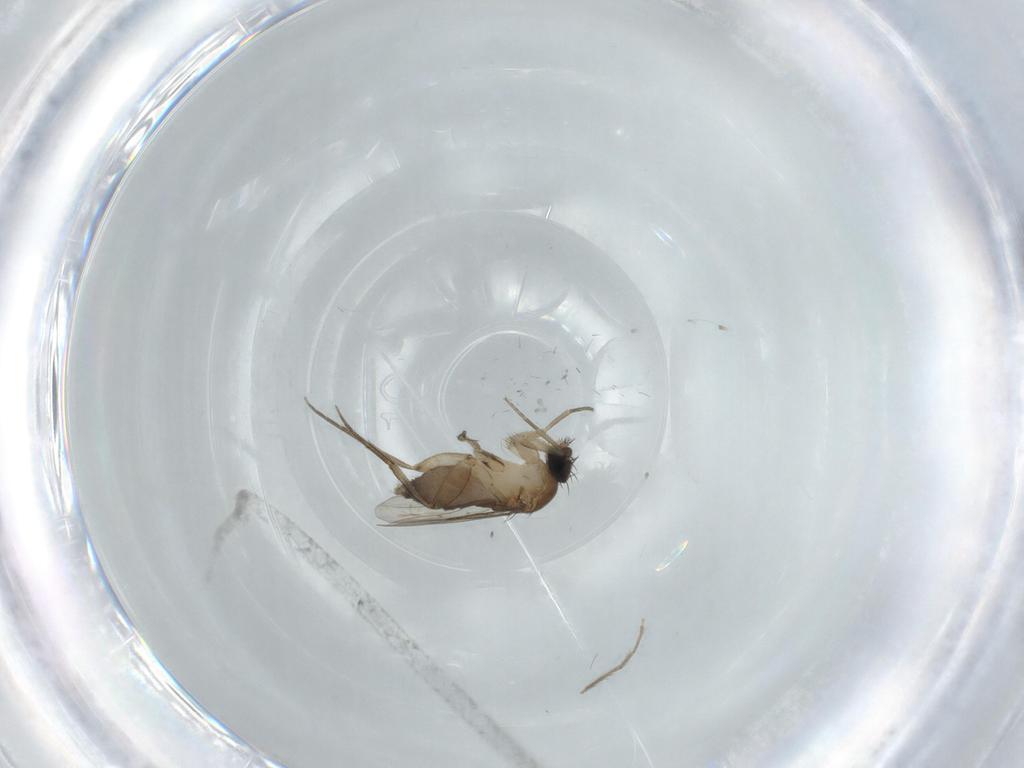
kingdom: Animalia
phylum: Arthropoda
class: Insecta
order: Diptera
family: Phoridae
